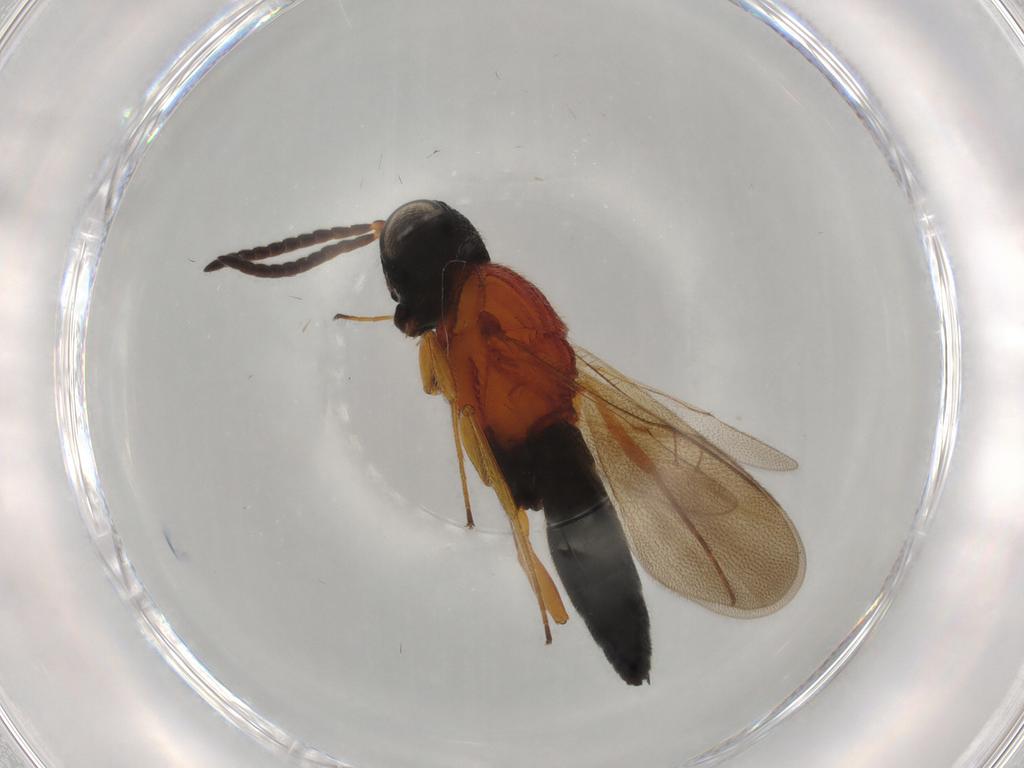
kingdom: Animalia
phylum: Arthropoda
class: Insecta
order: Hymenoptera
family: Scelionidae
